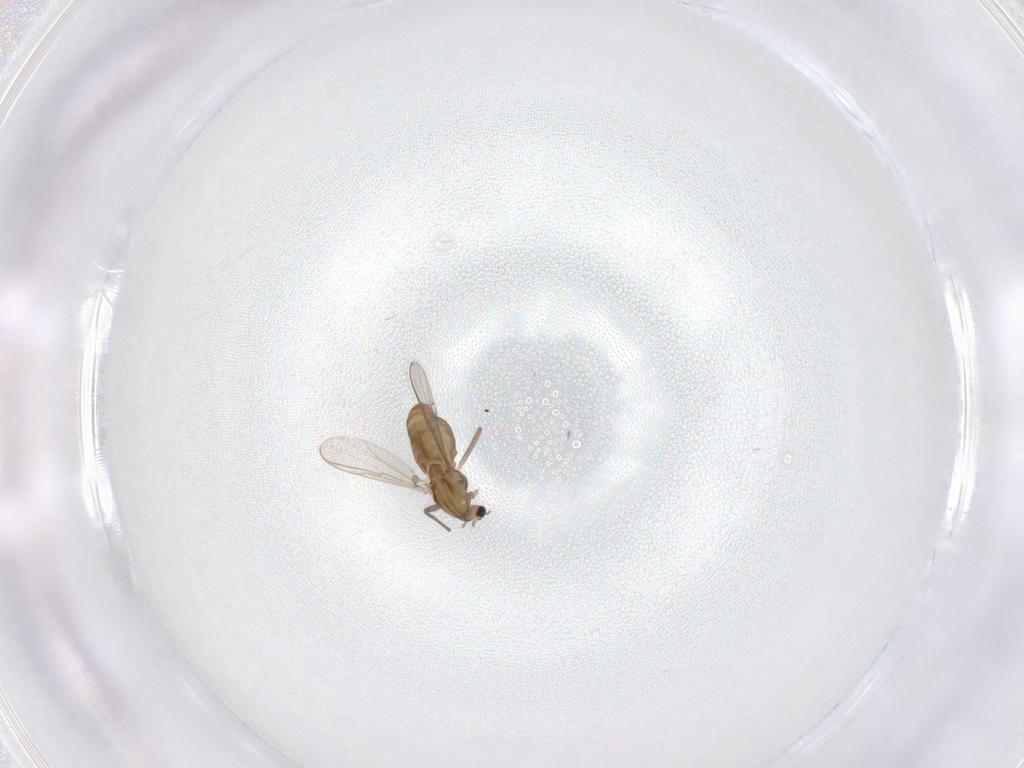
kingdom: Animalia
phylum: Arthropoda
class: Insecta
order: Diptera
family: Chironomidae
